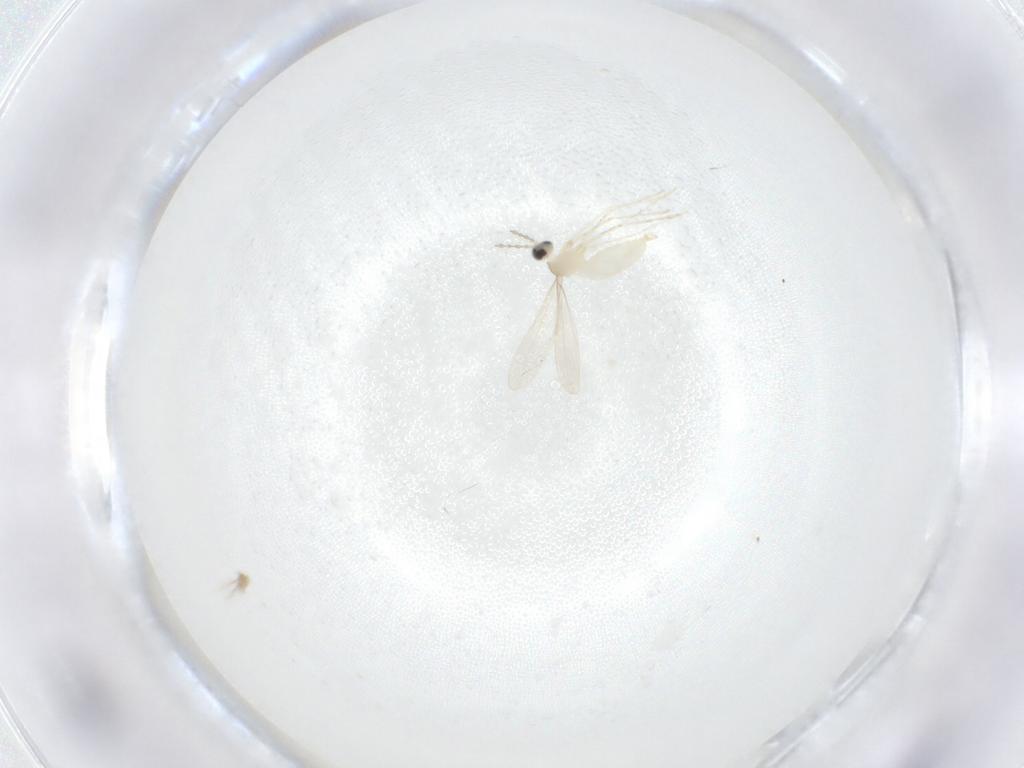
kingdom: Animalia
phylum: Arthropoda
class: Insecta
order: Diptera
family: Cecidomyiidae
